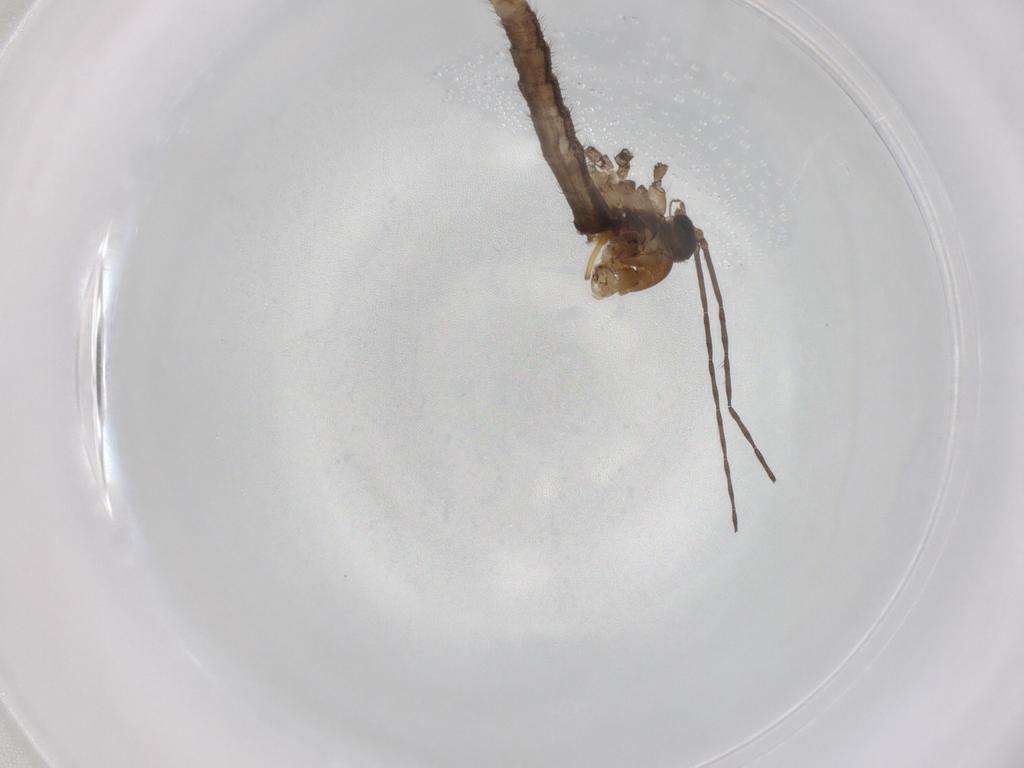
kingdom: Animalia
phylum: Arthropoda
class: Insecta
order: Diptera
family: Limoniidae
